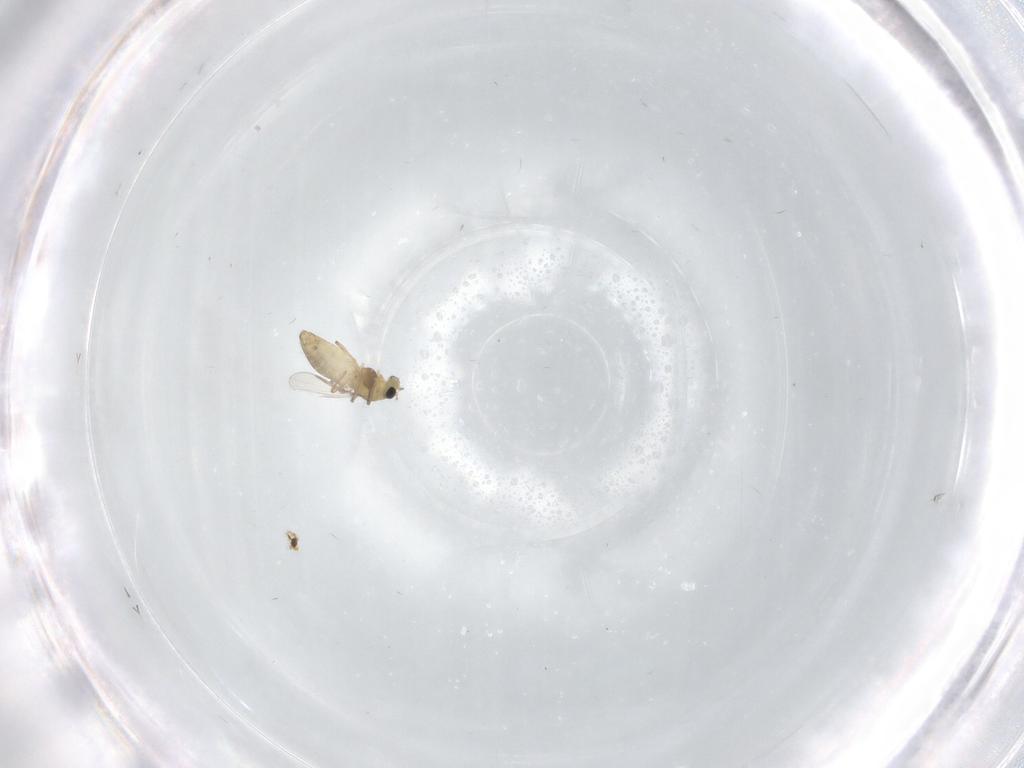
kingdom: Animalia
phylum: Arthropoda
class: Insecta
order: Diptera
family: Chironomidae
